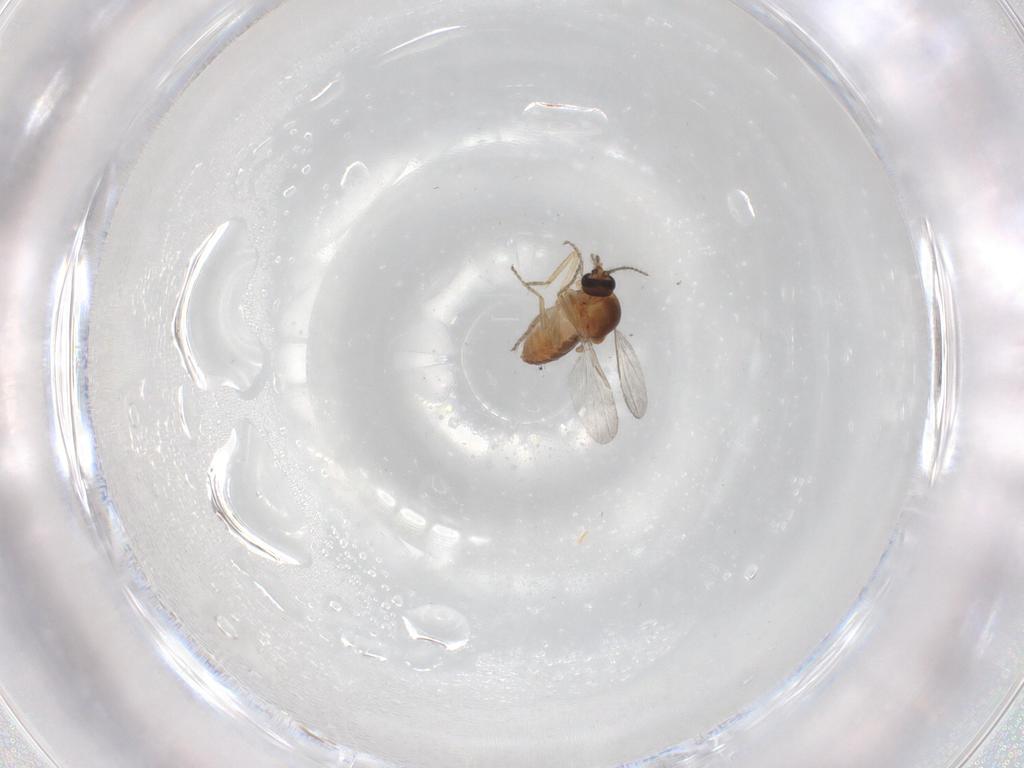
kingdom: Animalia
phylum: Arthropoda
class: Insecta
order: Diptera
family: Ceratopogonidae
